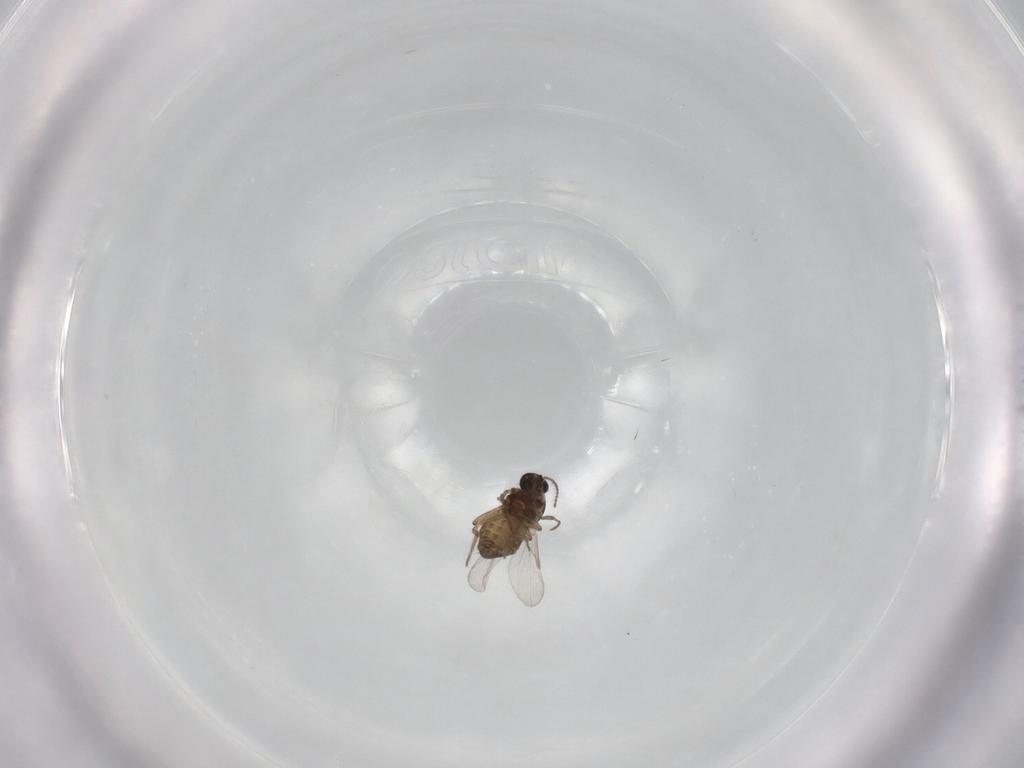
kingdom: Animalia
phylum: Arthropoda
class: Insecta
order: Diptera
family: Ceratopogonidae
